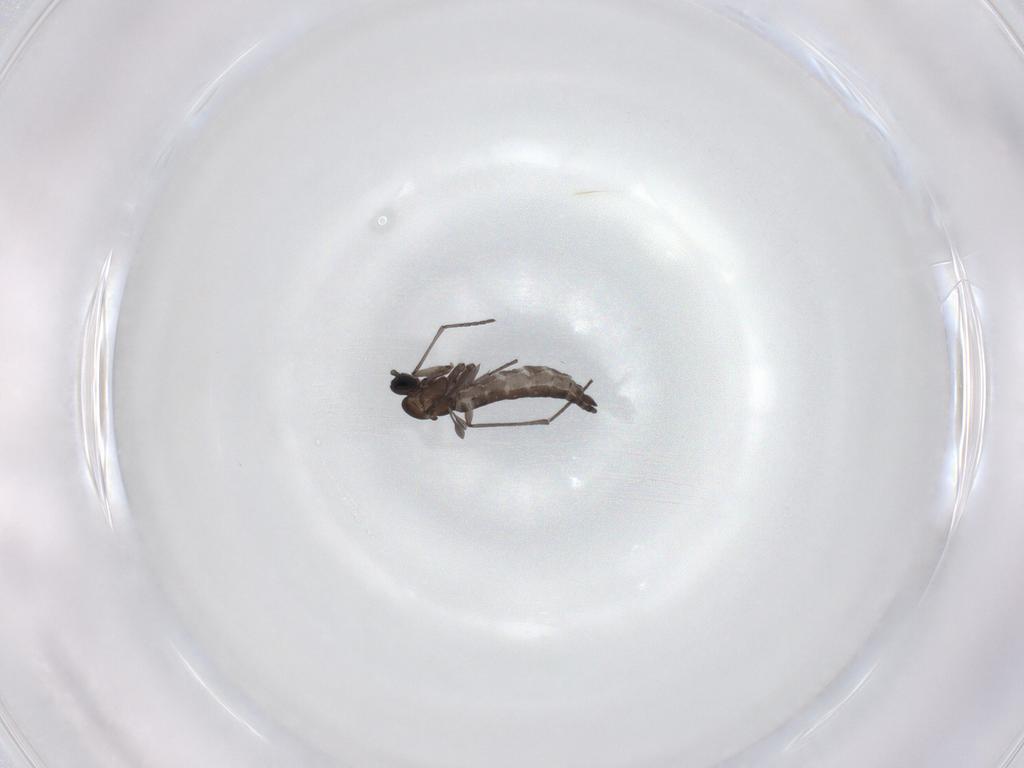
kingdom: Animalia
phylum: Arthropoda
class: Insecta
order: Diptera
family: Sciaridae
